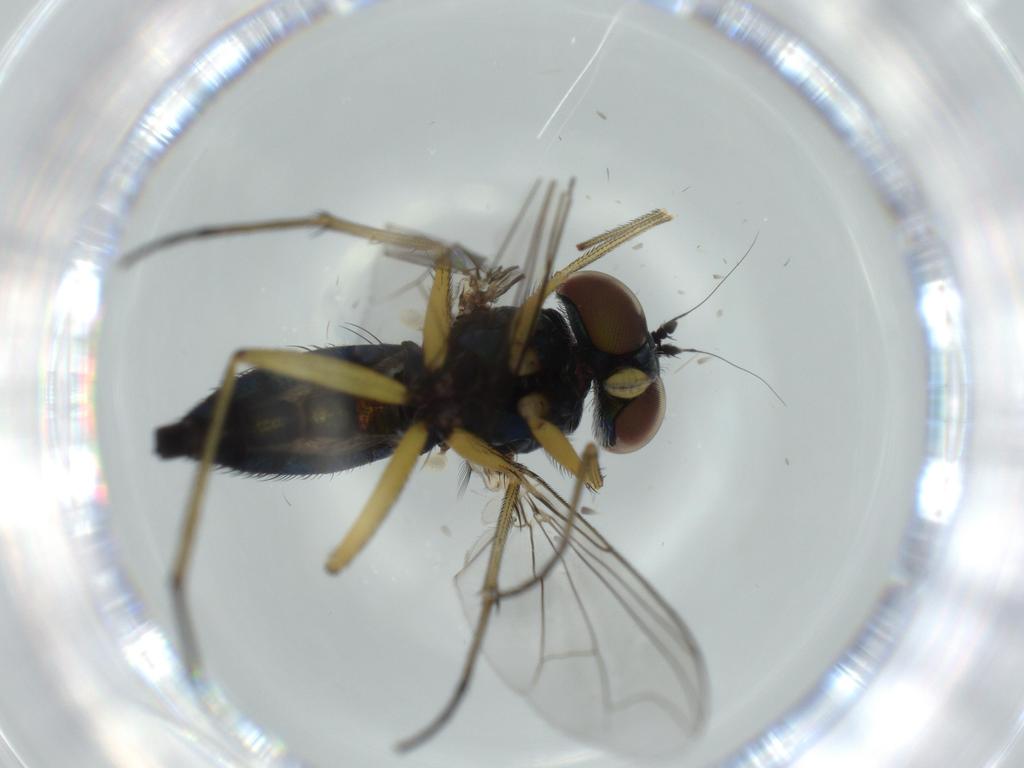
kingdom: Animalia
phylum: Arthropoda
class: Insecta
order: Diptera
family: Dolichopodidae
